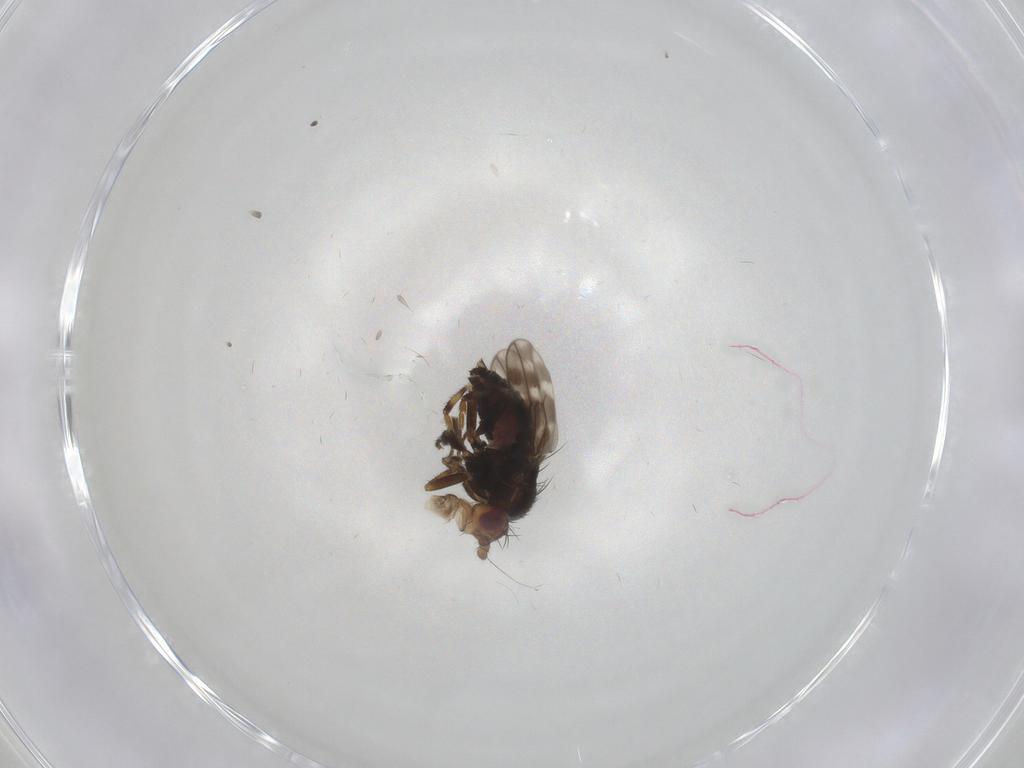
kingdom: Animalia
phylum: Arthropoda
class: Insecta
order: Diptera
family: Sphaeroceridae
